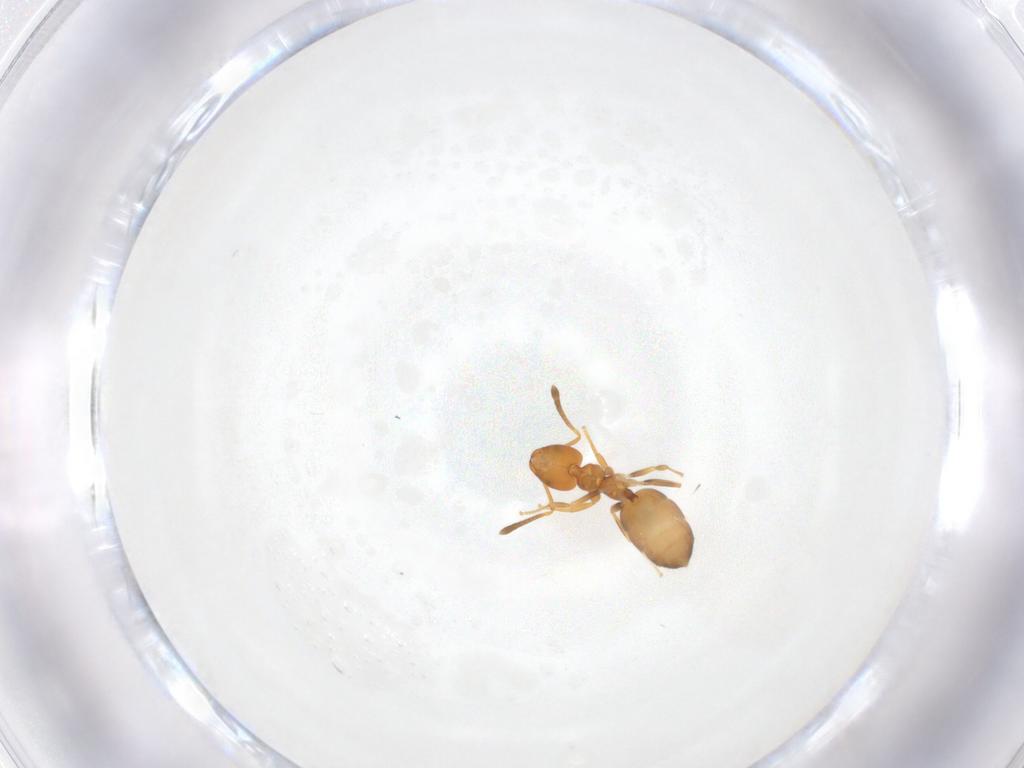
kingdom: Animalia
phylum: Arthropoda
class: Insecta
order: Hymenoptera
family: Formicidae
